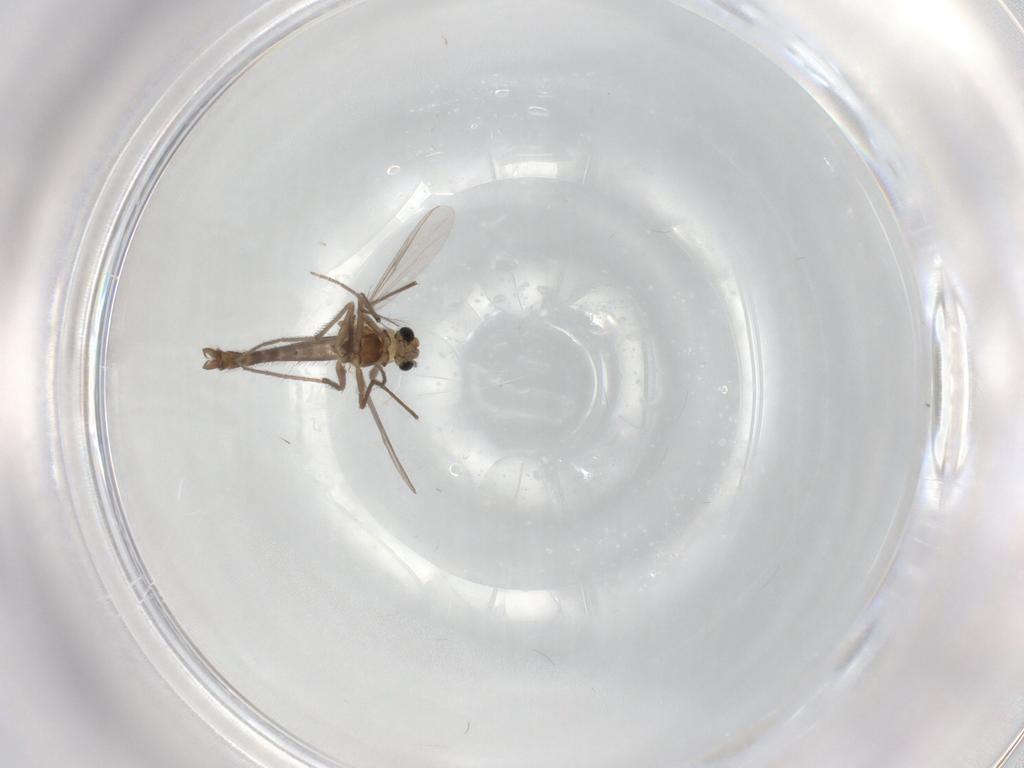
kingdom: Animalia
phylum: Arthropoda
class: Insecta
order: Diptera
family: Chironomidae
